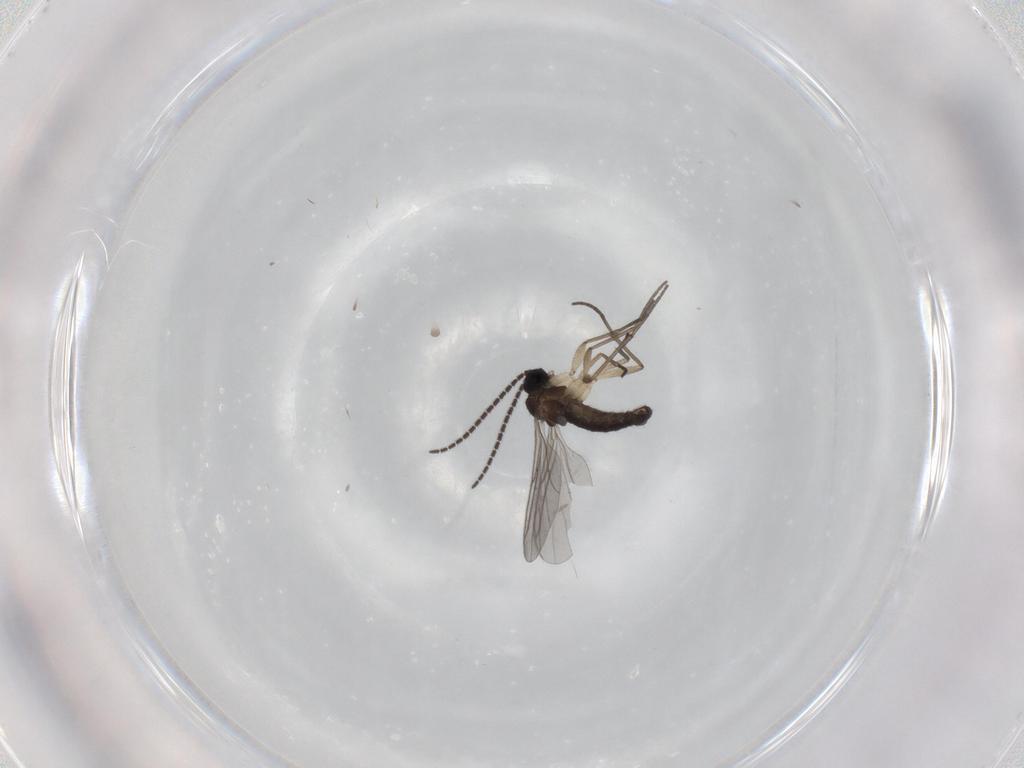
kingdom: Animalia
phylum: Arthropoda
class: Insecta
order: Diptera
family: Sciaridae
